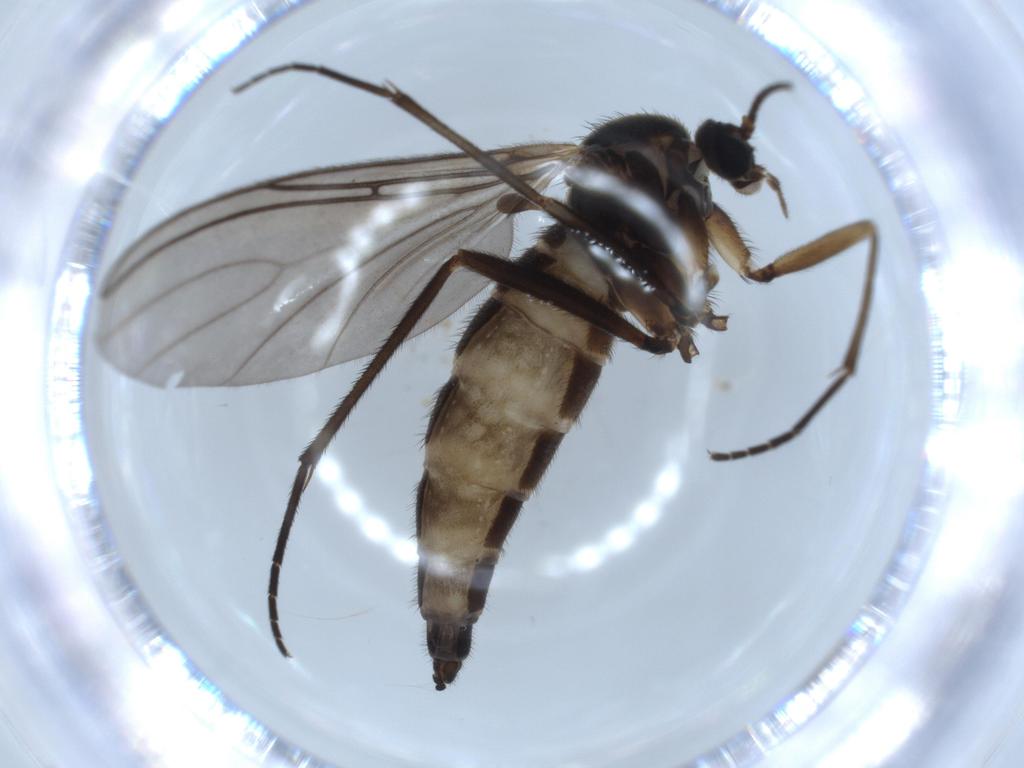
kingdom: Animalia
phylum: Arthropoda
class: Insecta
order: Diptera
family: Sciaridae
